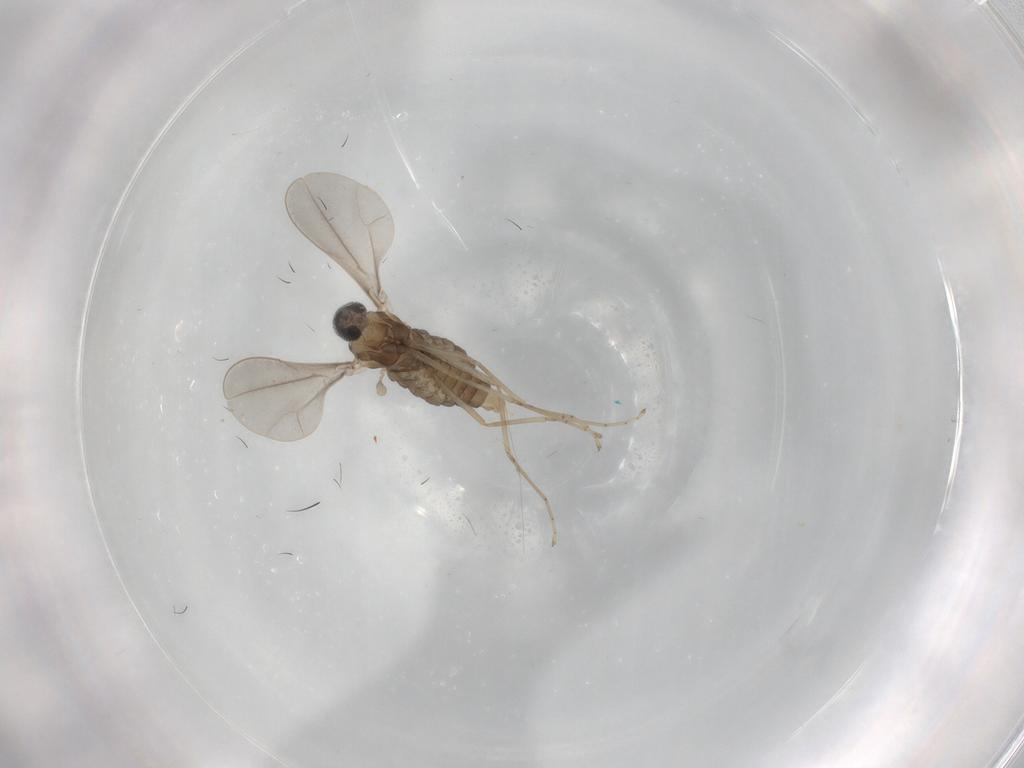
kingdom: Animalia
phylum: Arthropoda
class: Insecta
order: Diptera
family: Cecidomyiidae
